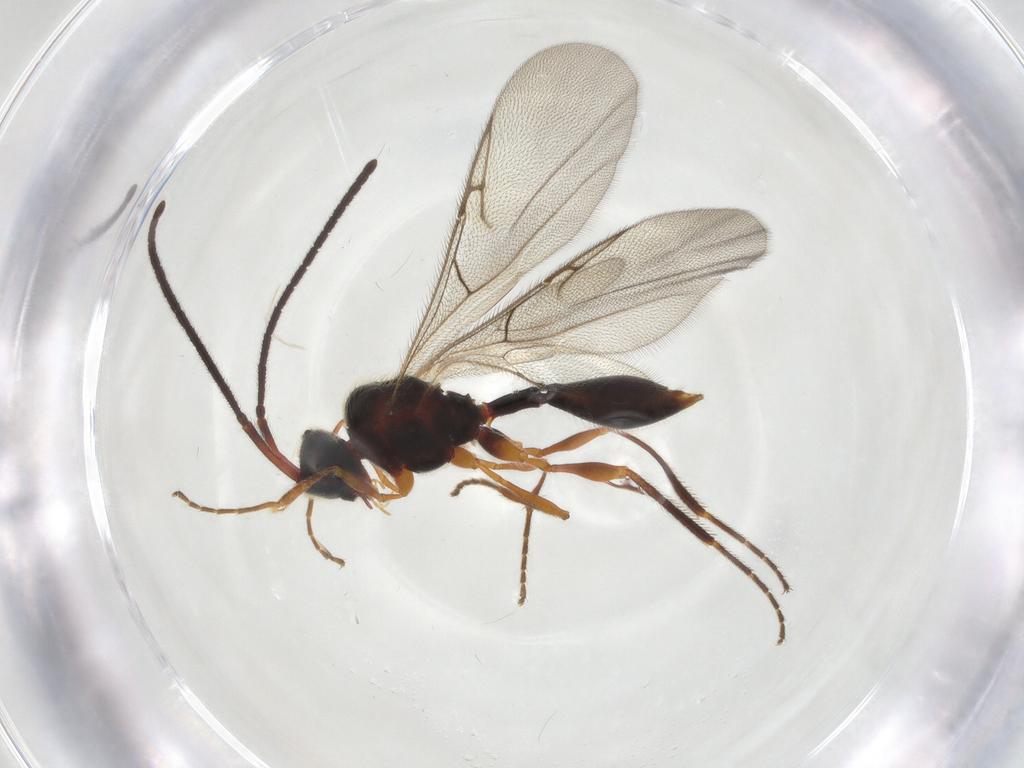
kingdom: Animalia
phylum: Arthropoda
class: Insecta
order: Hymenoptera
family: Diapriidae
